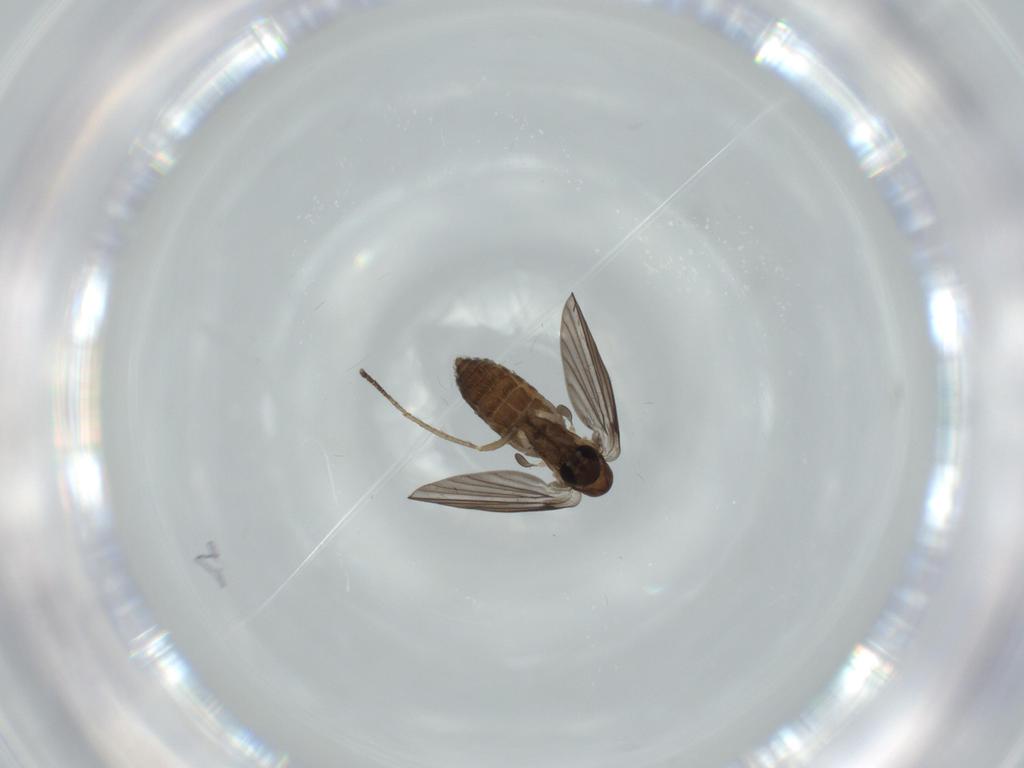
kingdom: Animalia
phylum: Arthropoda
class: Insecta
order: Diptera
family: Psychodidae
